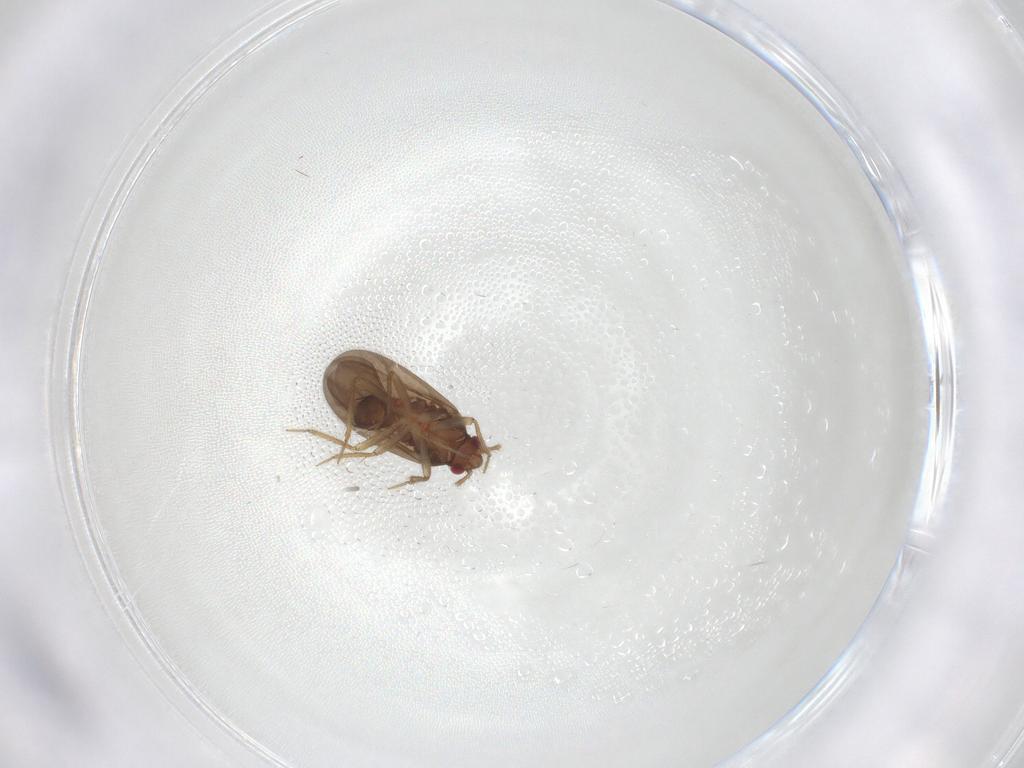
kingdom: Animalia
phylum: Arthropoda
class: Insecta
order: Hemiptera
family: Ceratocombidae
